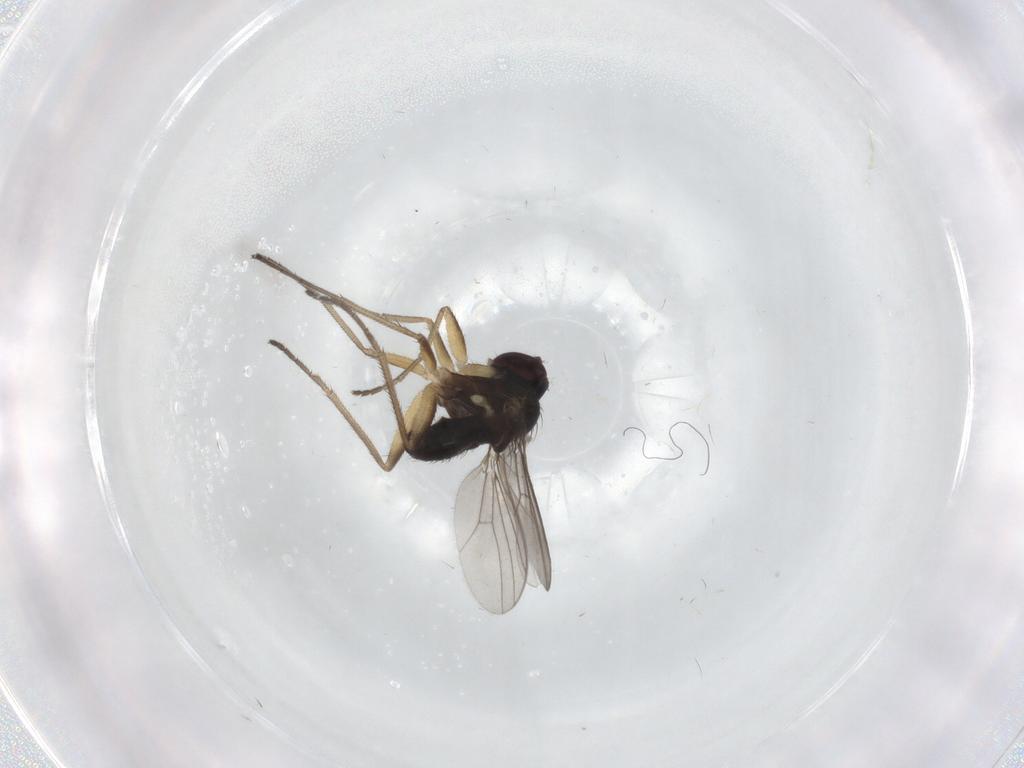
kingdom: Animalia
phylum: Arthropoda
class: Insecta
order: Diptera
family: Dolichopodidae
